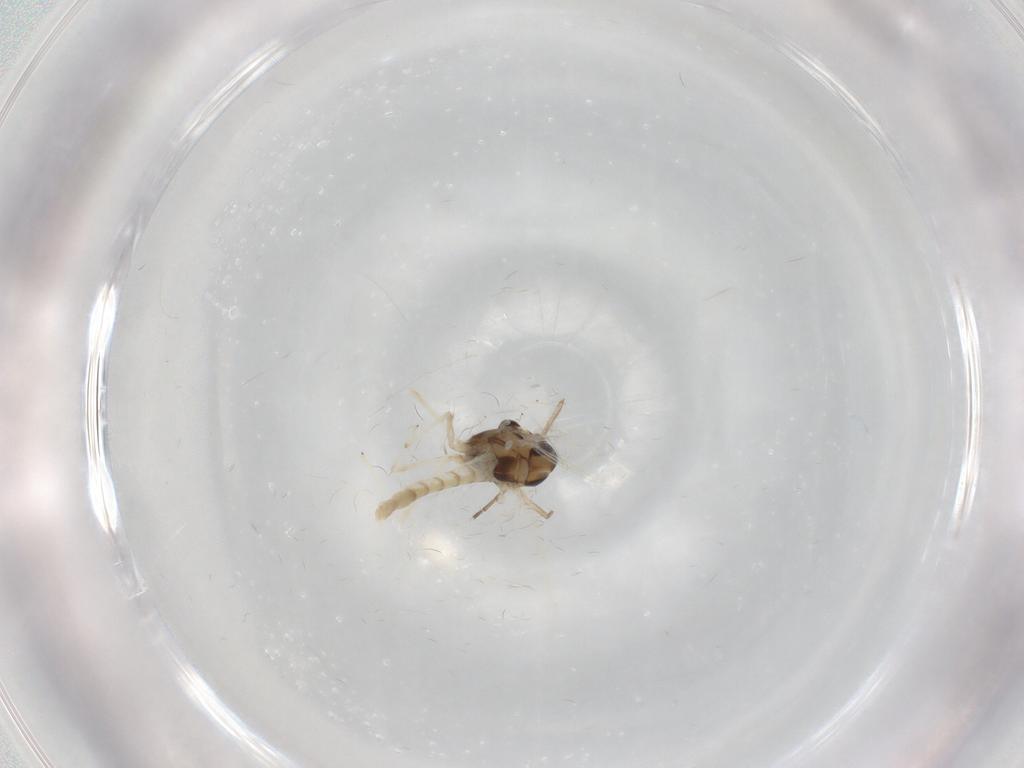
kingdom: Animalia
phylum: Arthropoda
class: Insecta
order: Diptera
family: Chironomidae
